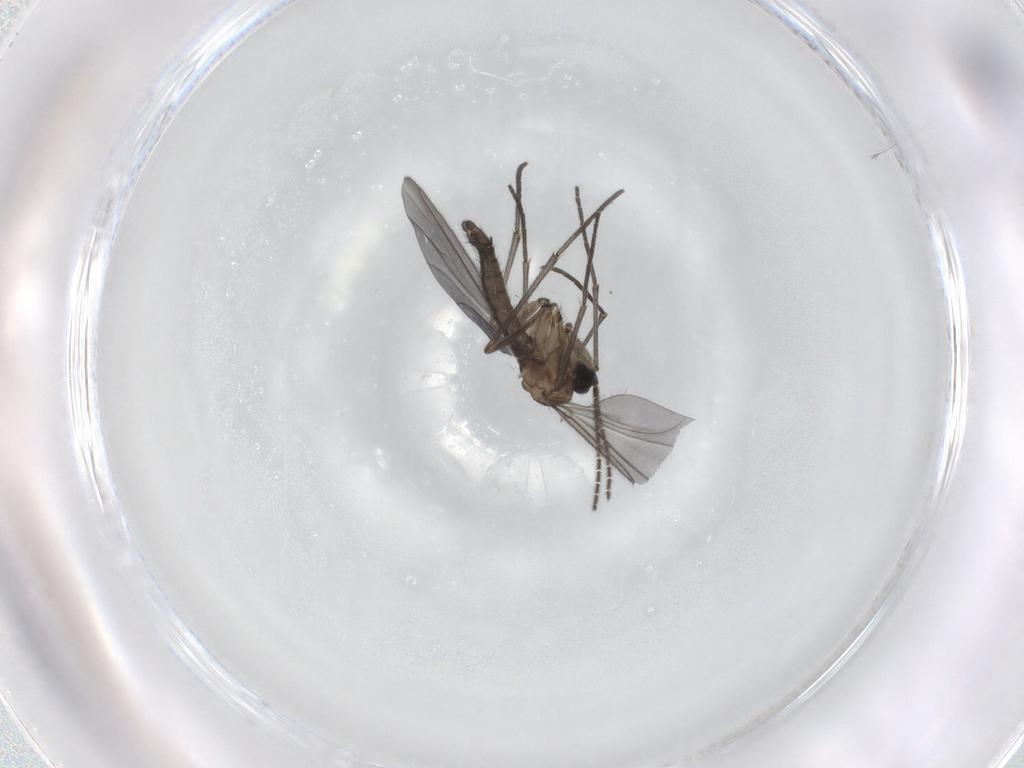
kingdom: Animalia
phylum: Arthropoda
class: Insecta
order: Diptera
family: Sciaridae
